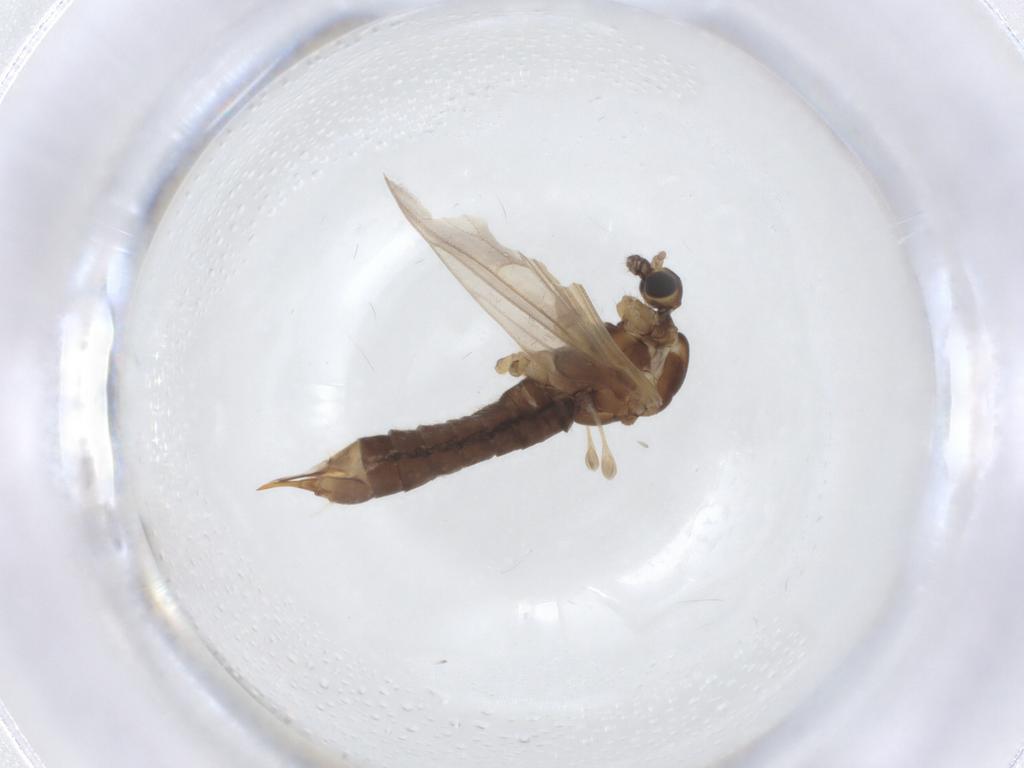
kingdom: Animalia
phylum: Arthropoda
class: Insecta
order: Diptera
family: Limoniidae
